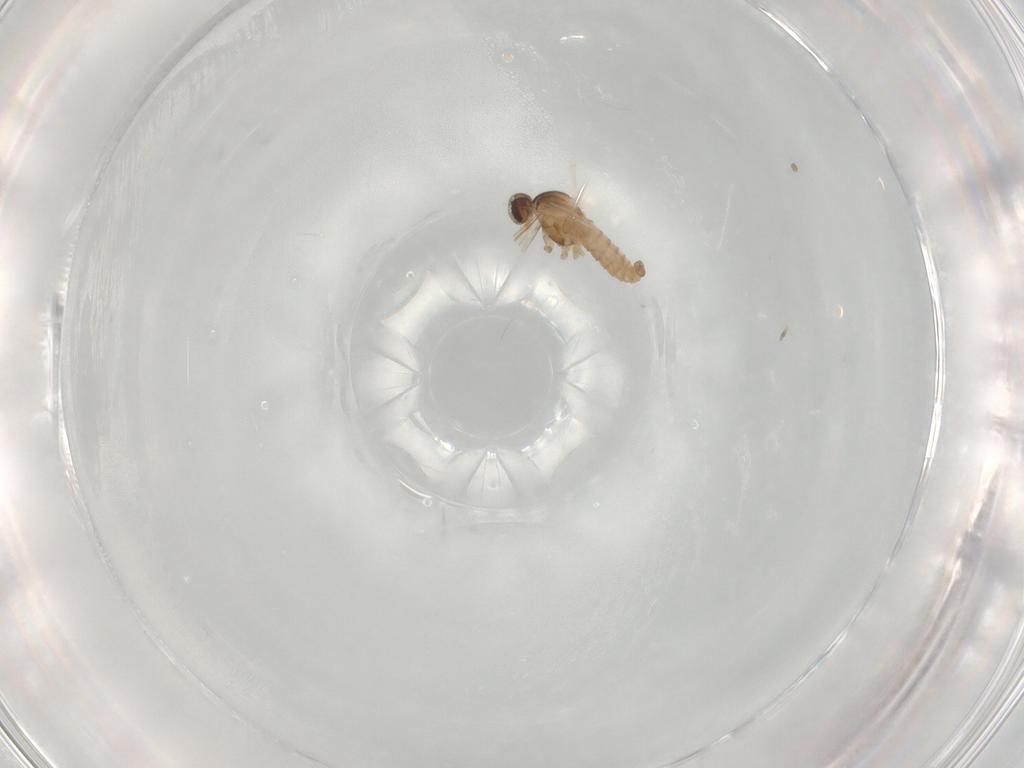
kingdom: Animalia
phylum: Arthropoda
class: Insecta
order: Diptera
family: Cecidomyiidae
